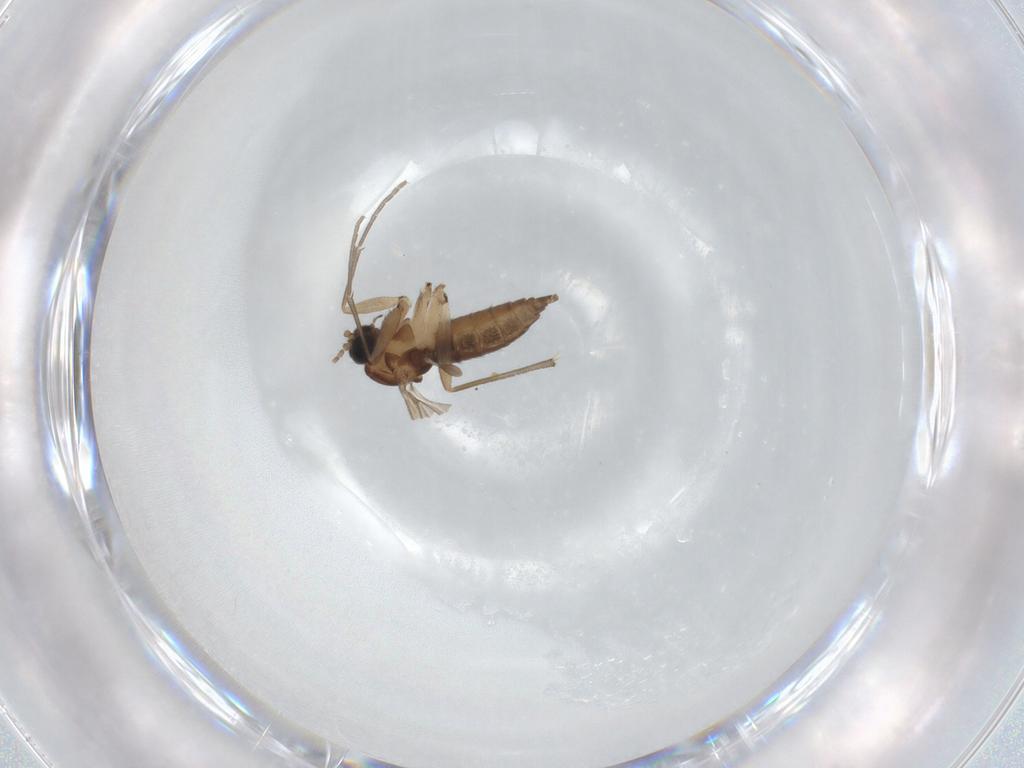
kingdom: Animalia
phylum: Arthropoda
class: Insecta
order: Diptera
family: Sciaridae
